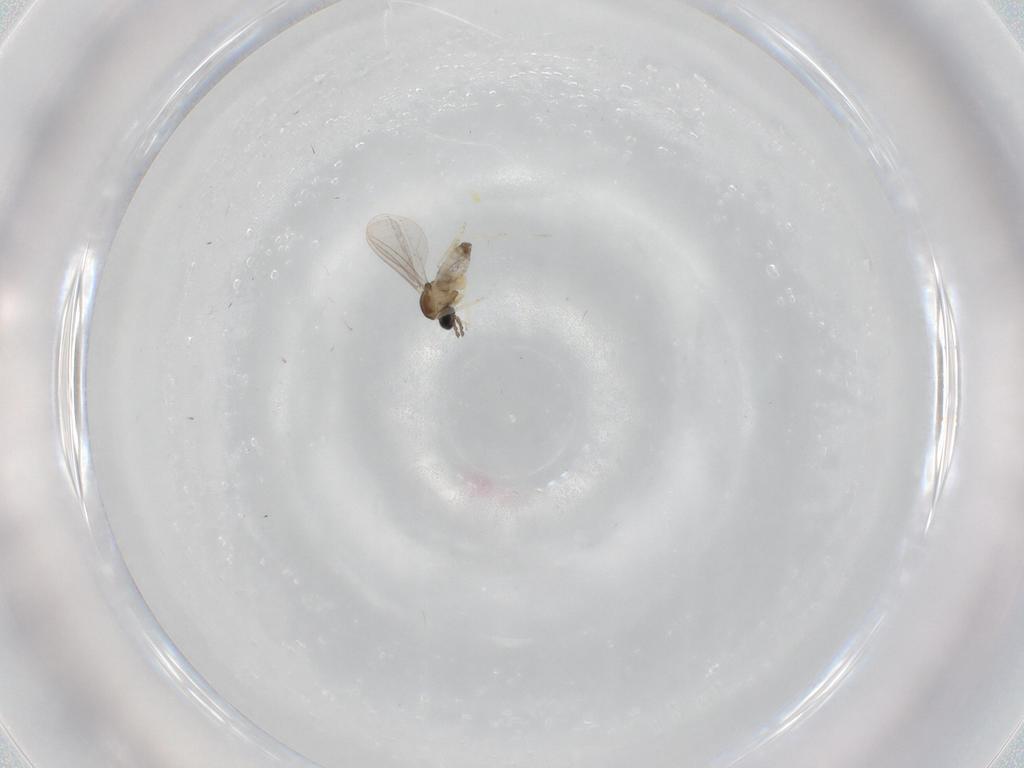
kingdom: Animalia
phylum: Arthropoda
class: Insecta
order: Diptera
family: Cecidomyiidae
